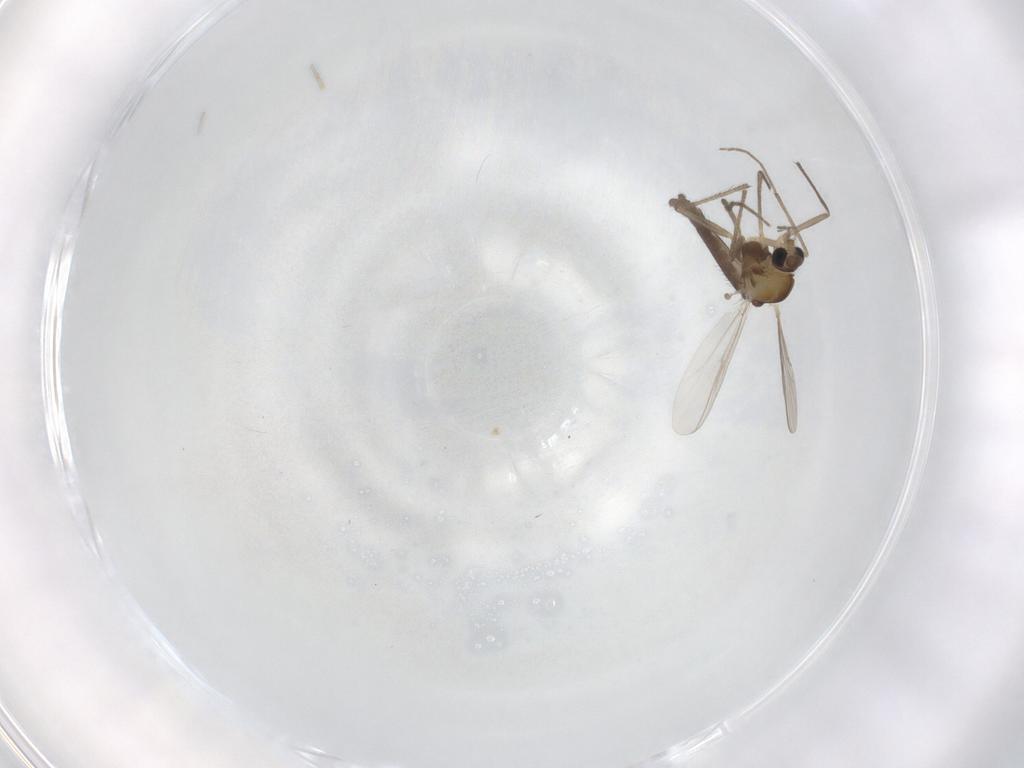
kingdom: Animalia
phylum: Arthropoda
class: Insecta
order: Diptera
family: Chironomidae
